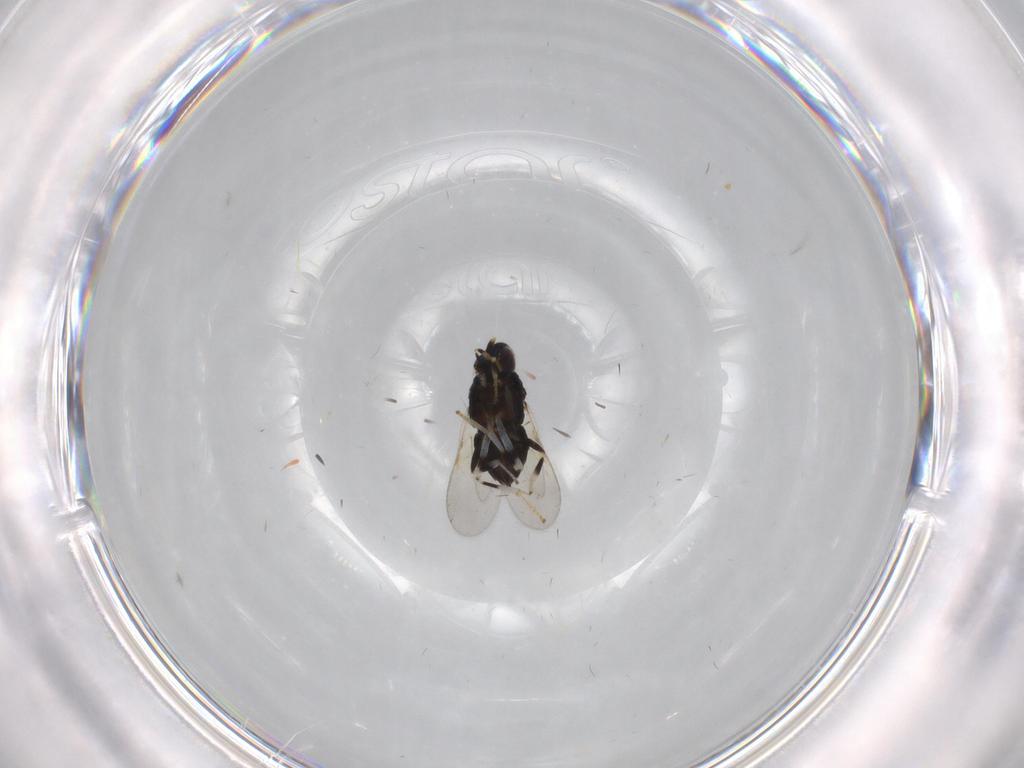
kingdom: Animalia
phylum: Arthropoda
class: Insecta
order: Hymenoptera
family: Encyrtidae
